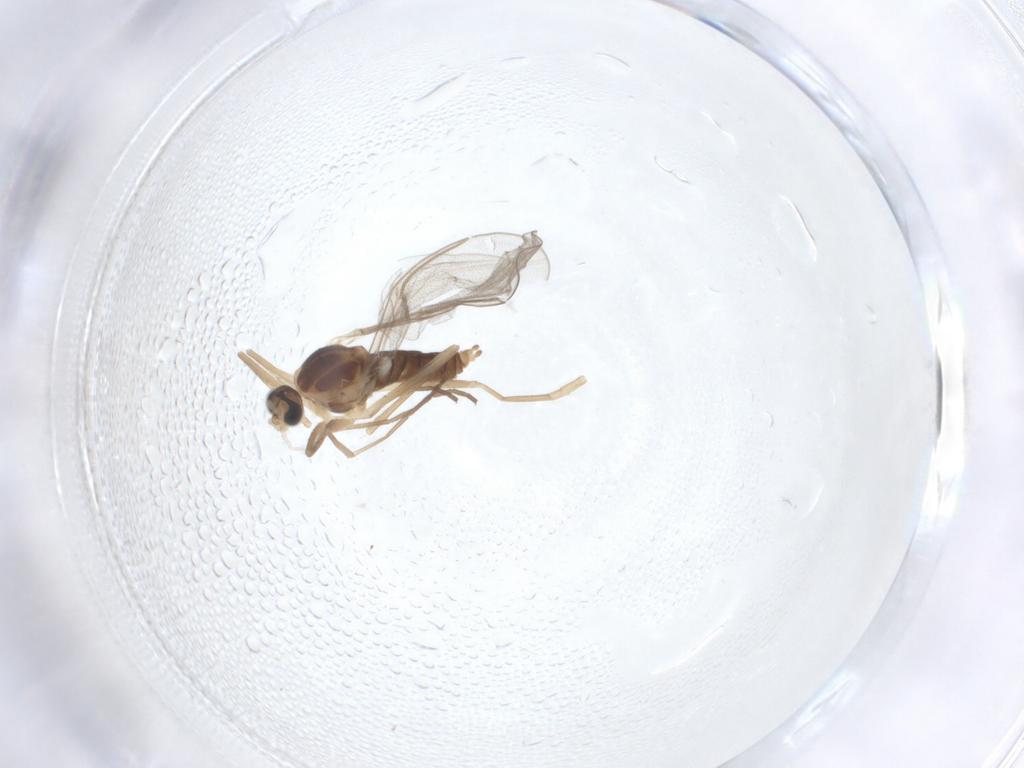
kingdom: Animalia
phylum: Arthropoda
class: Insecta
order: Diptera
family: Cecidomyiidae
